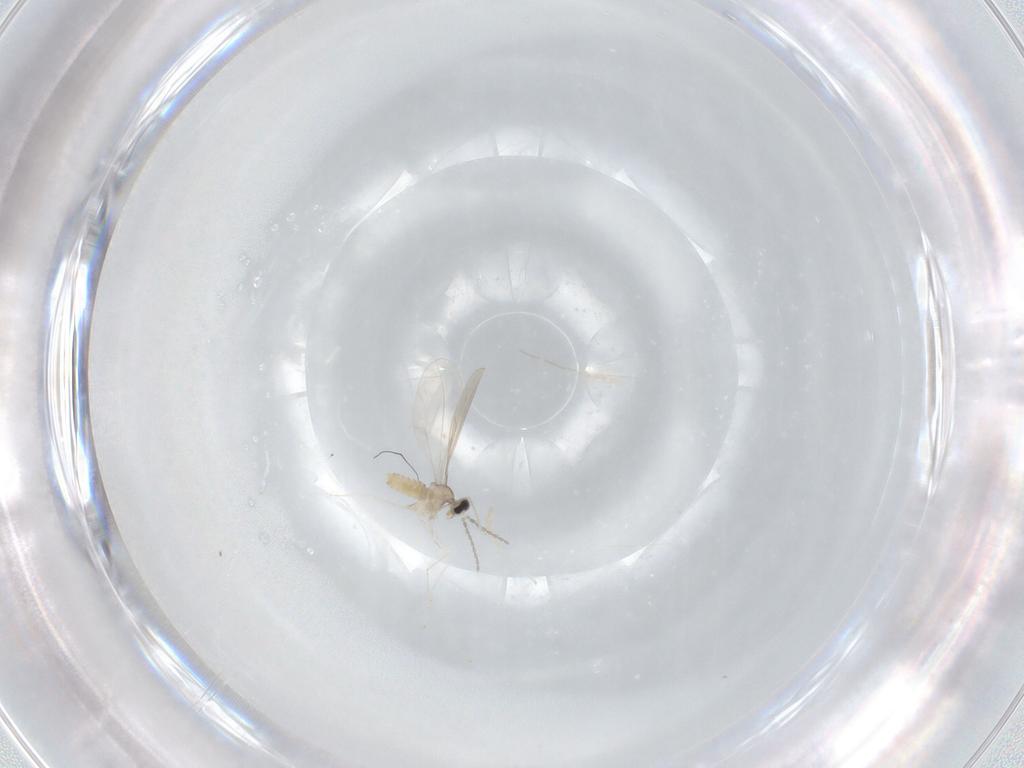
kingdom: Animalia
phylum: Arthropoda
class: Insecta
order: Diptera
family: Cecidomyiidae
